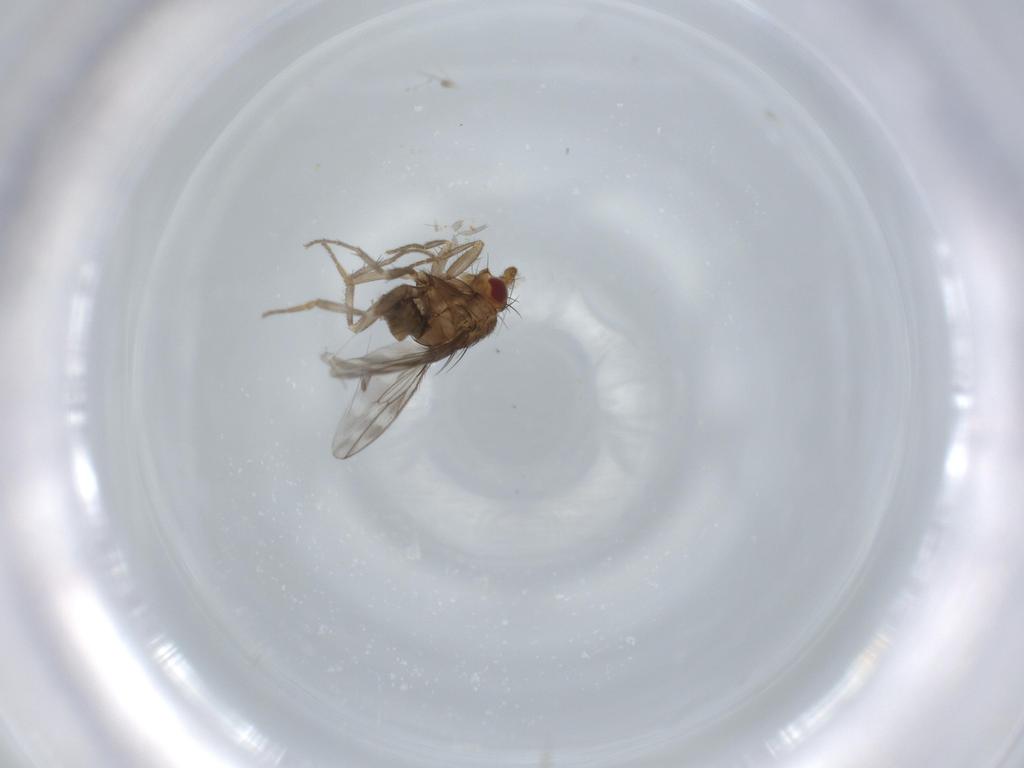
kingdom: Animalia
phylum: Arthropoda
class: Insecta
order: Diptera
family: Sphaeroceridae
